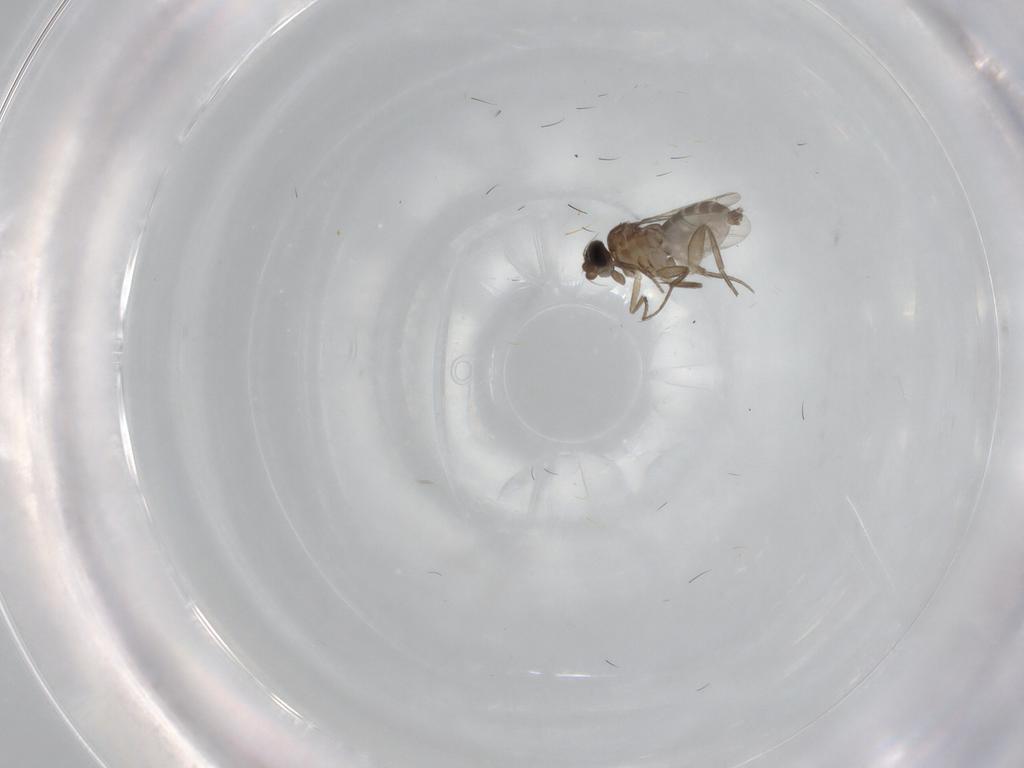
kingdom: Animalia
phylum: Arthropoda
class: Insecta
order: Diptera
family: Phoridae
